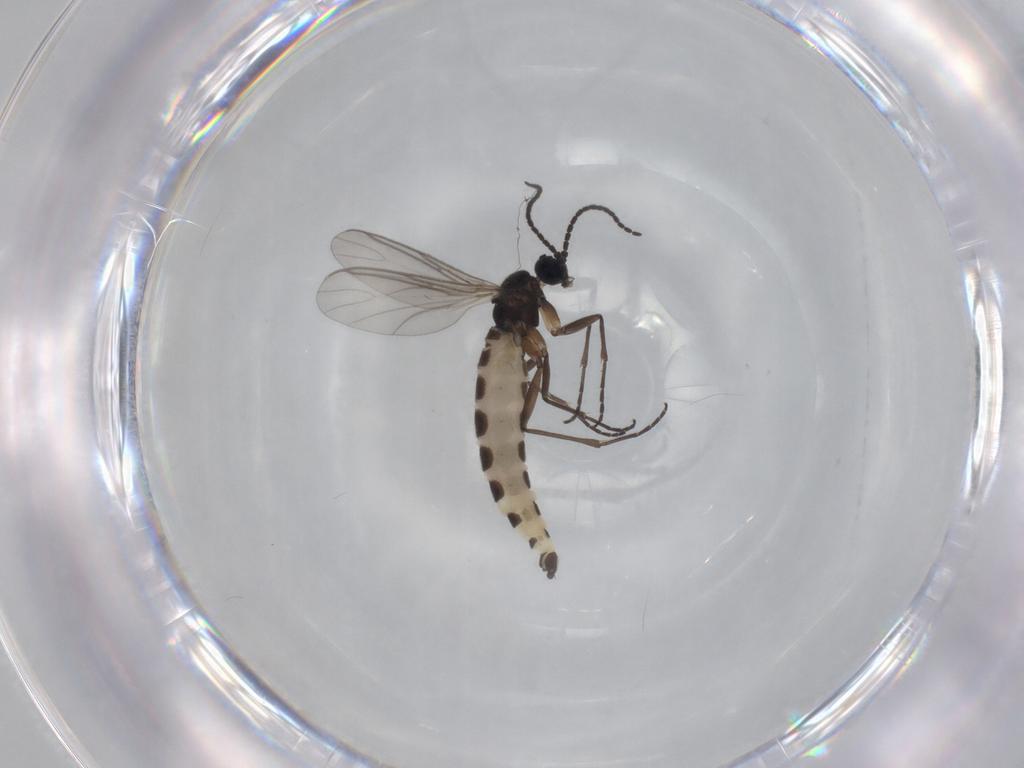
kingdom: Animalia
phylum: Arthropoda
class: Insecta
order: Diptera
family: Sciaridae
